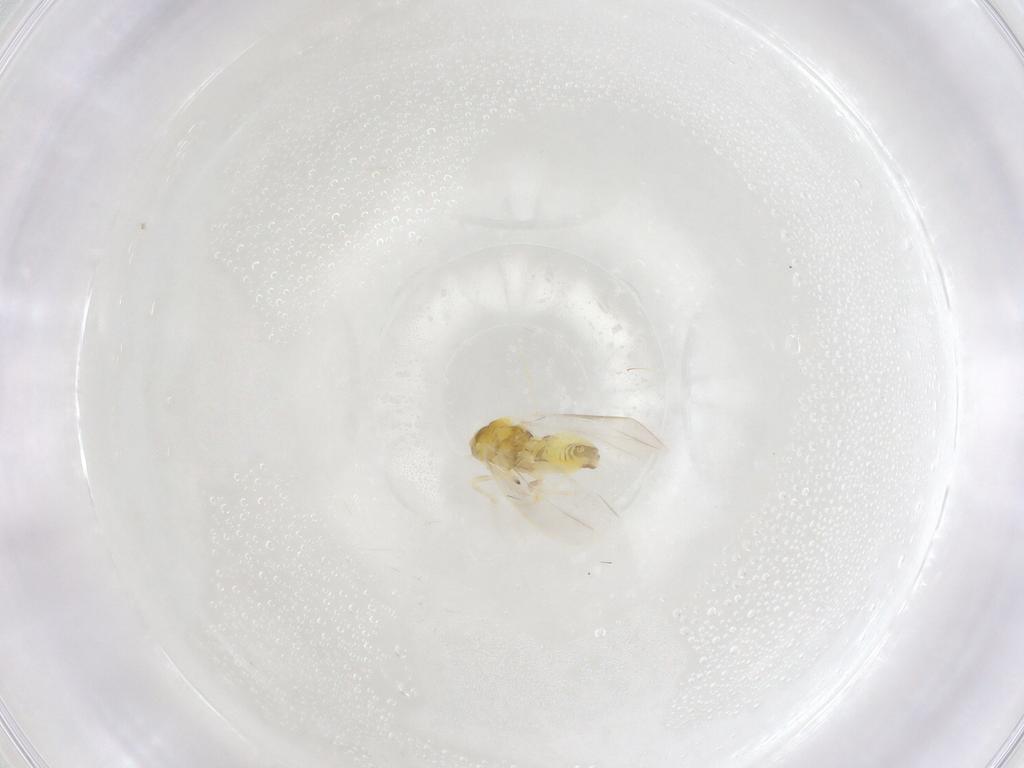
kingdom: Animalia
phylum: Arthropoda
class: Insecta
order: Hemiptera
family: Aleyrodidae
